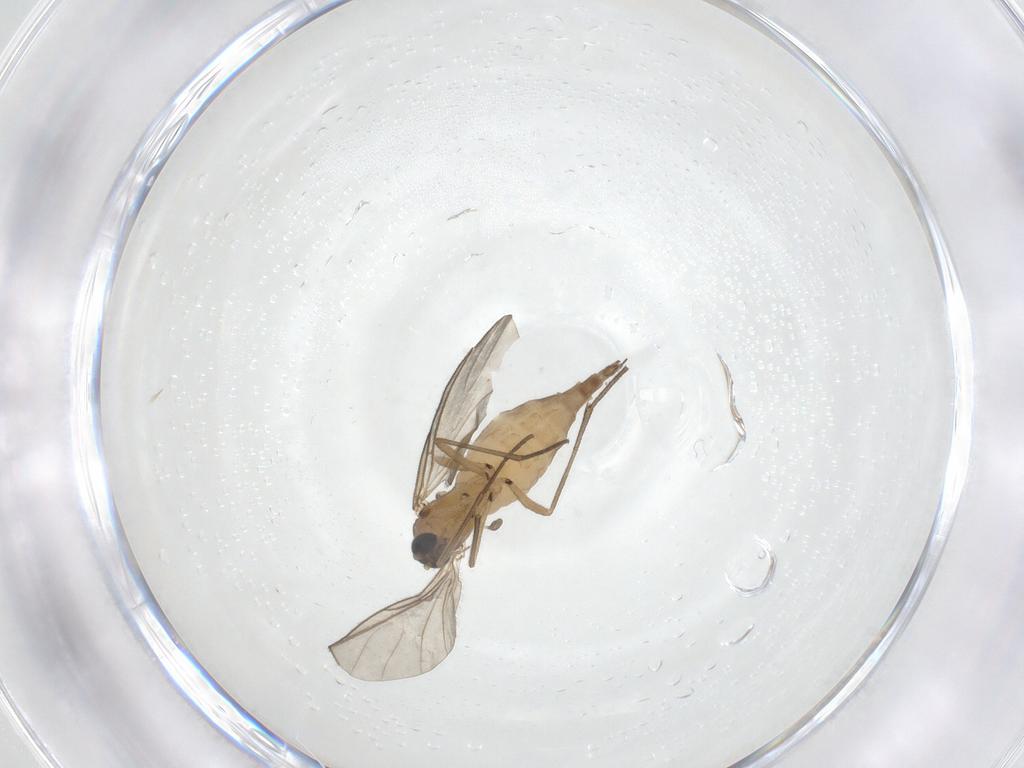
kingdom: Animalia
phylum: Arthropoda
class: Insecta
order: Diptera
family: Sciaridae
